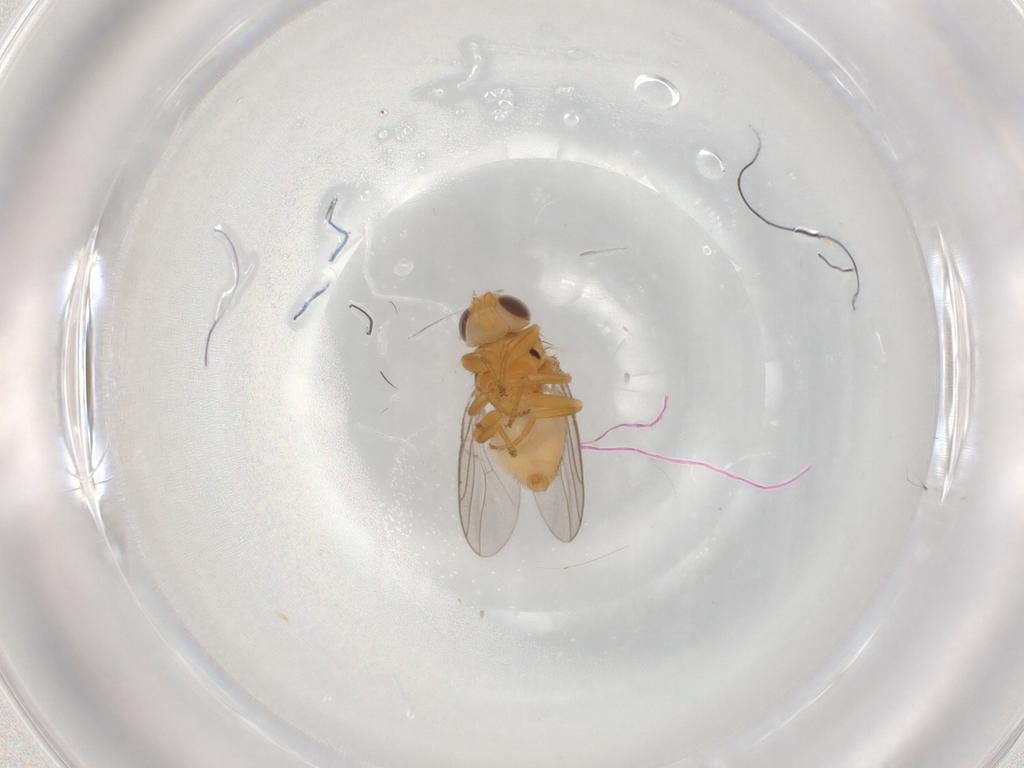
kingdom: Animalia
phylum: Arthropoda
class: Insecta
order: Diptera
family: Chloropidae
